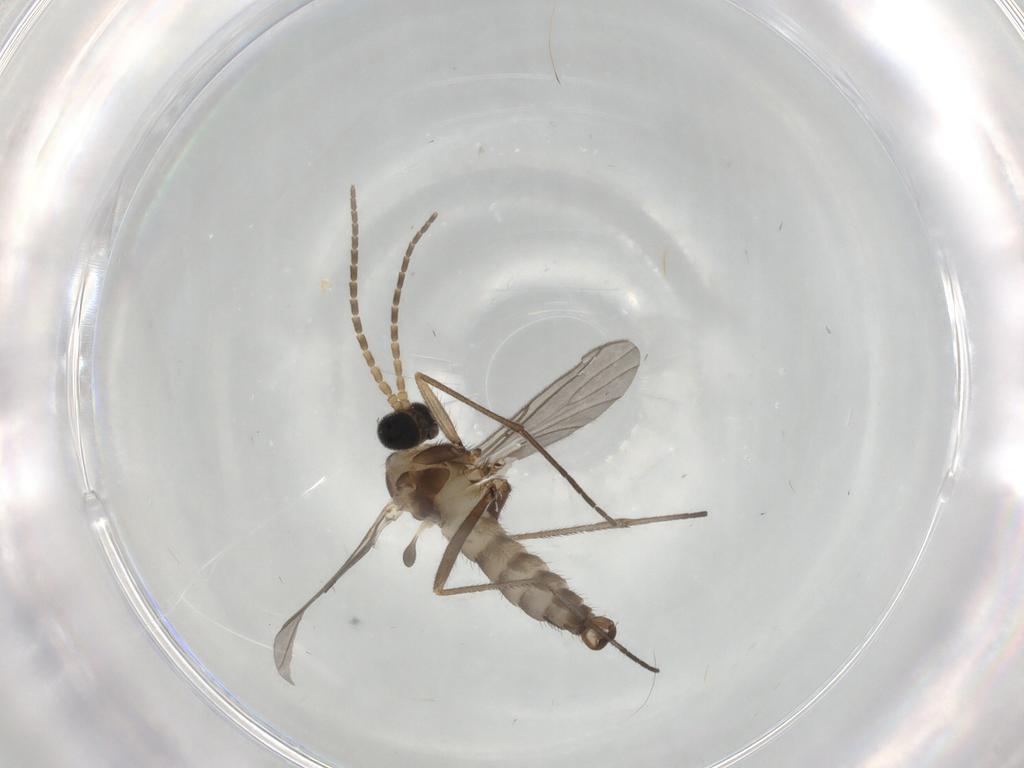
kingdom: Animalia
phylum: Arthropoda
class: Insecta
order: Diptera
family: Sciaridae
